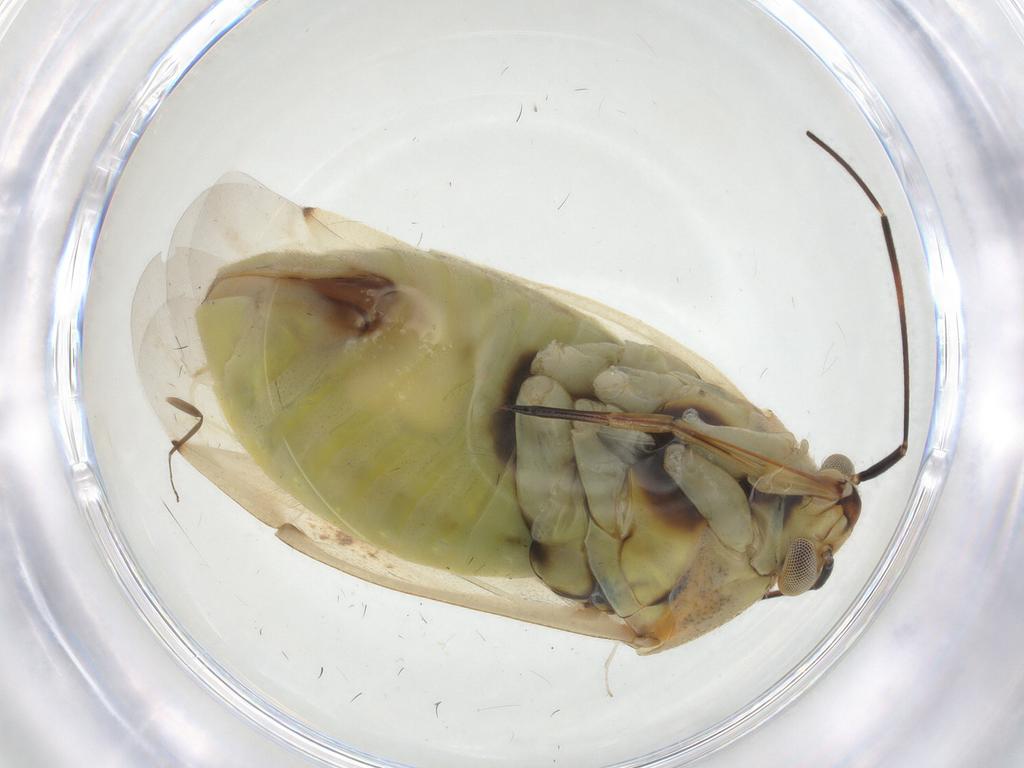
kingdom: Animalia
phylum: Arthropoda
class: Insecta
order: Hemiptera
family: Miridae
